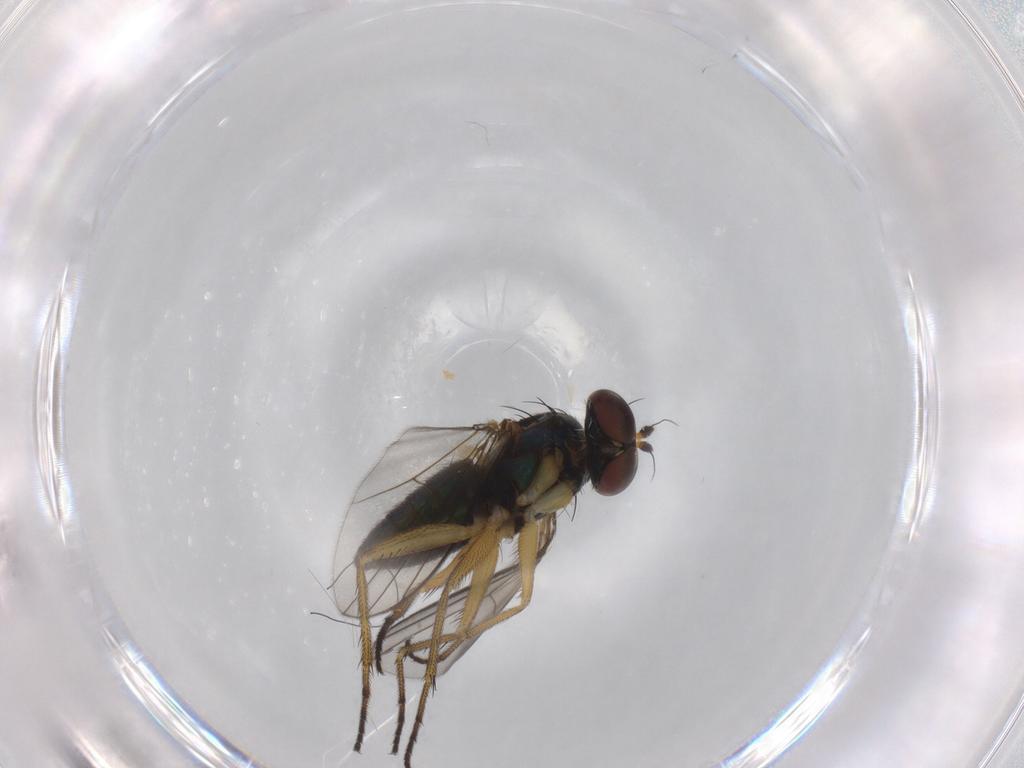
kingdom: Animalia
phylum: Arthropoda
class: Insecta
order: Diptera
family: Dolichopodidae
